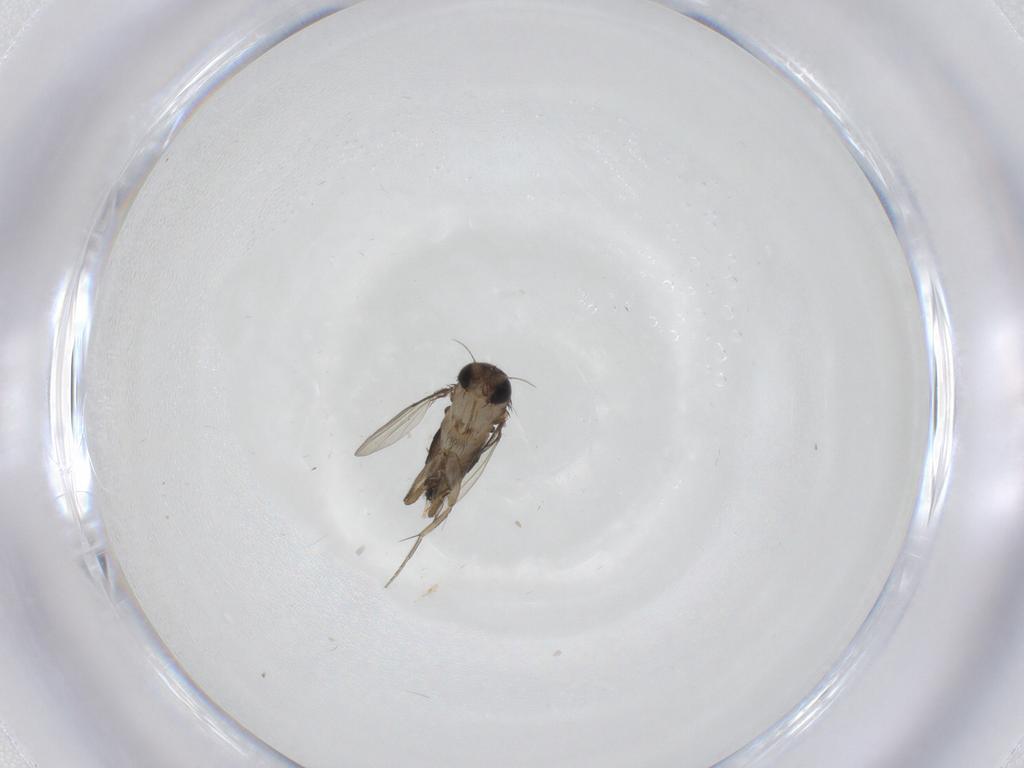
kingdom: Animalia
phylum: Arthropoda
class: Insecta
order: Diptera
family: Phoridae
